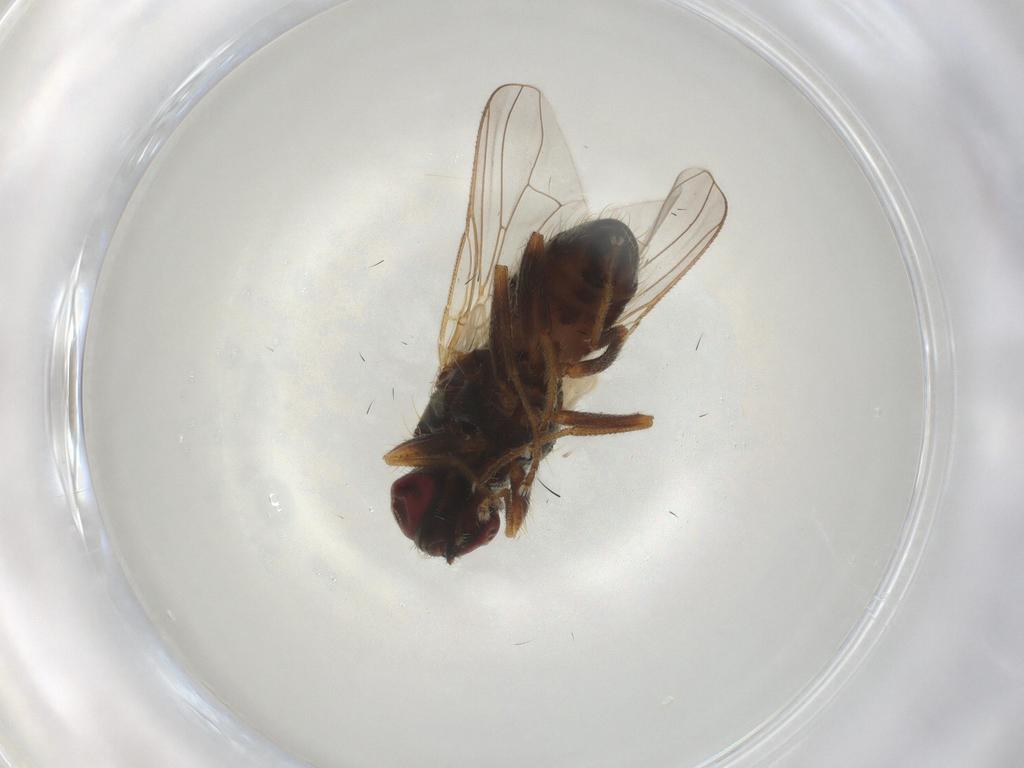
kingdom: Animalia
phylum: Arthropoda
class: Insecta
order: Diptera
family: Muscidae
